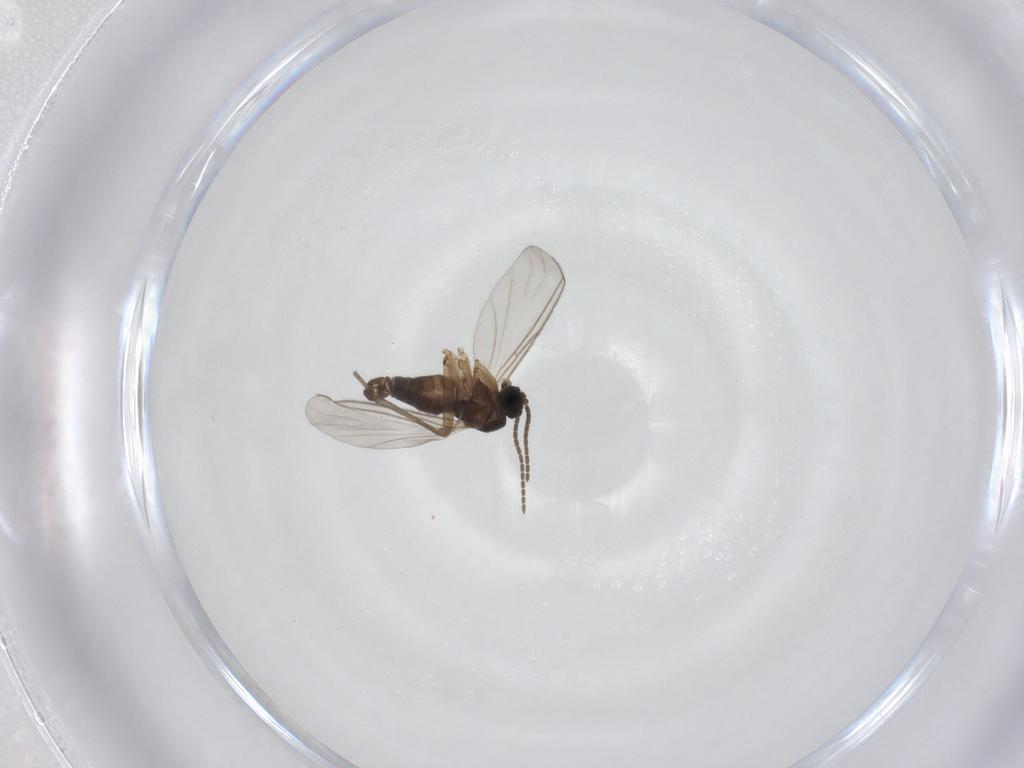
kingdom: Animalia
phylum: Arthropoda
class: Insecta
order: Diptera
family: Sciaridae
